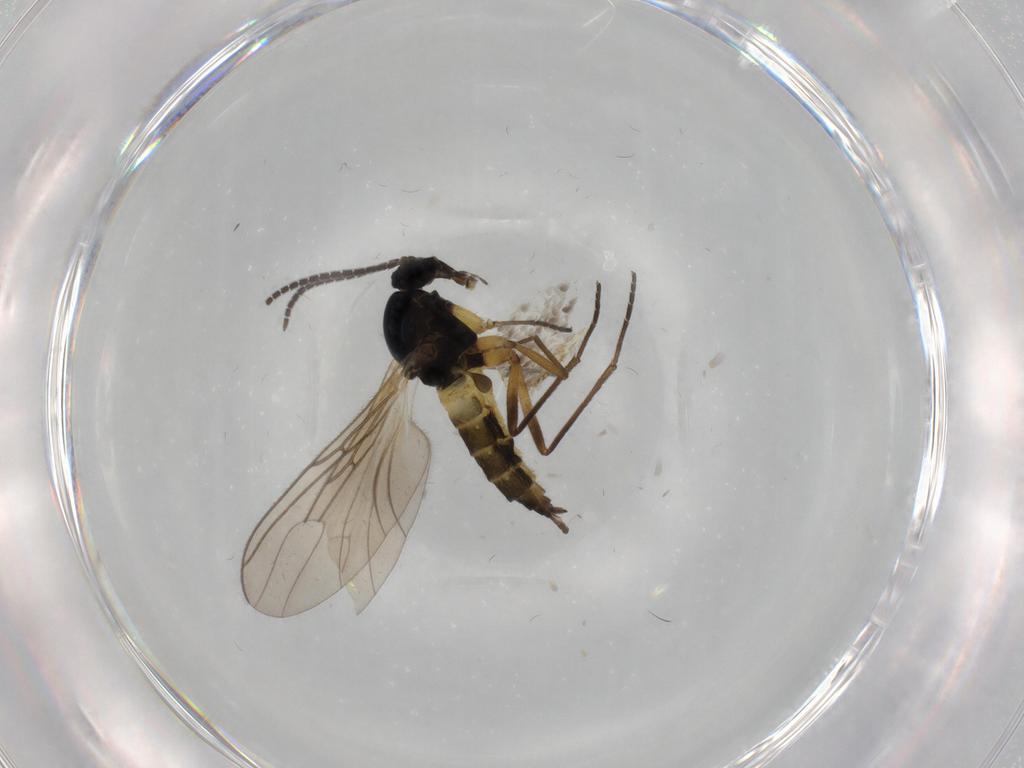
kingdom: Animalia
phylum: Arthropoda
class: Insecta
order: Diptera
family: Sciaridae
